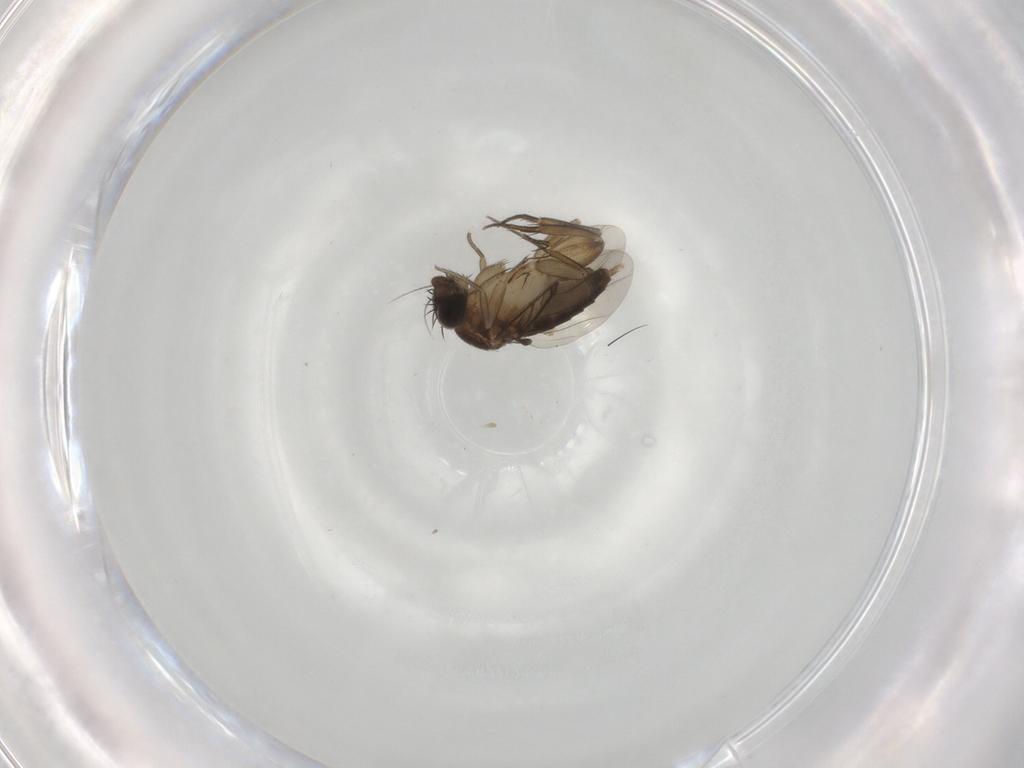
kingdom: Animalia
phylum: Arthropoda
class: Insecta
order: Diptera
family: Phoridae
